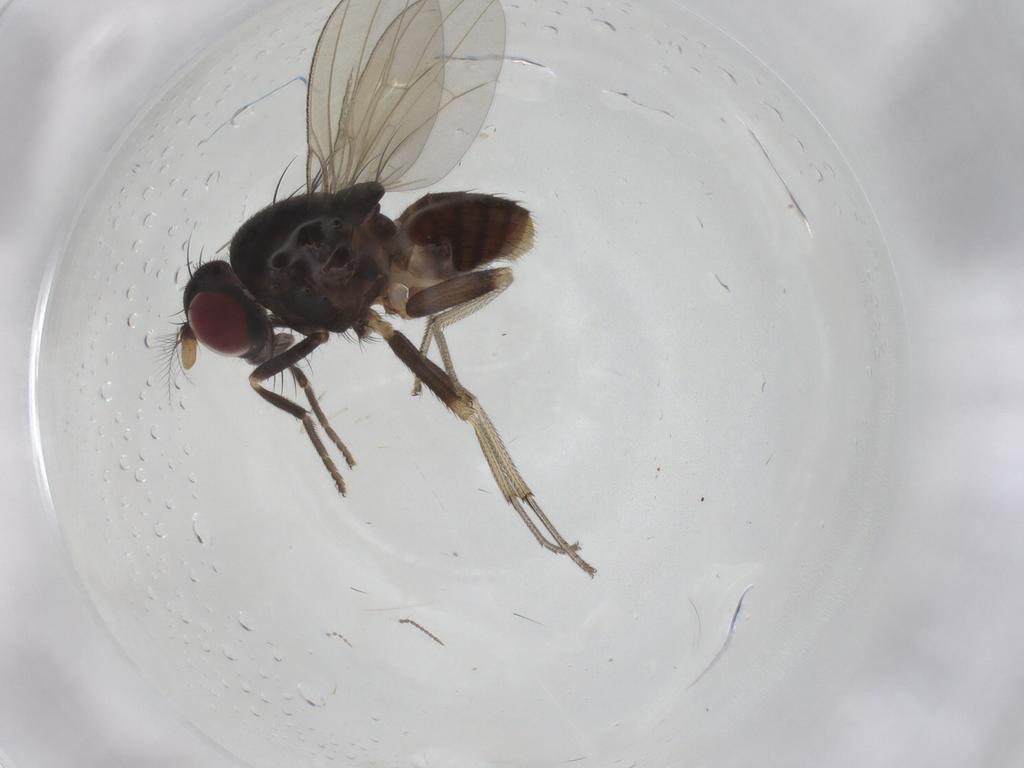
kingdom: Animalia
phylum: Arthropoda
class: Insecta
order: Diptera
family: Lauxaniidae
